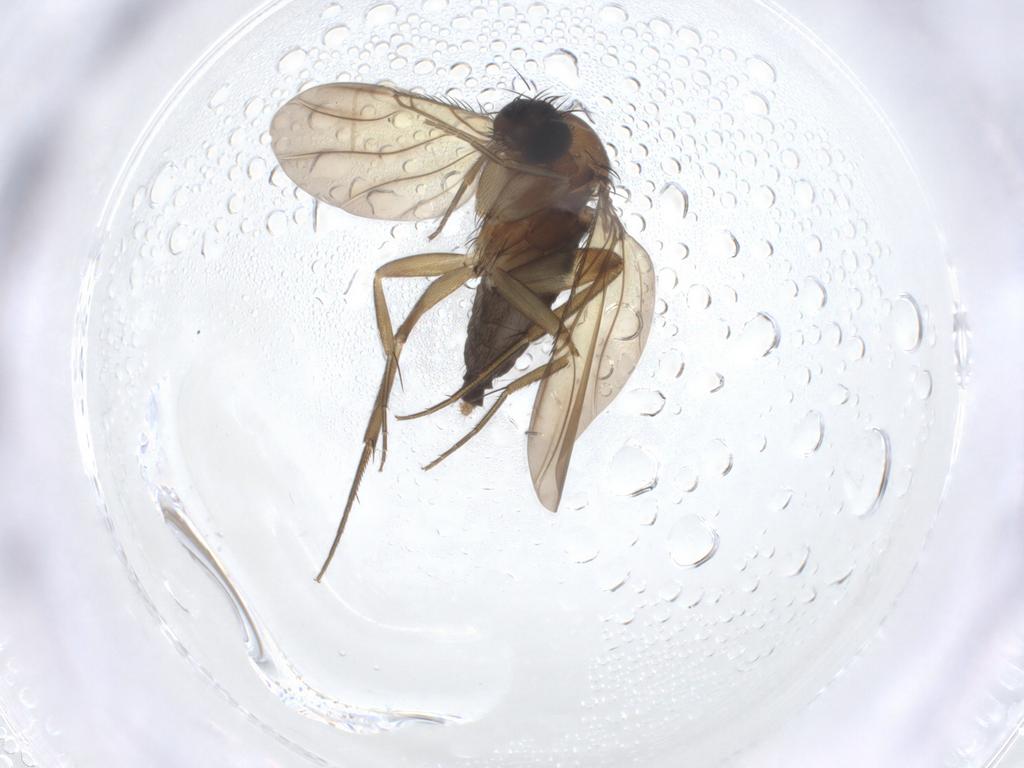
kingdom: Animalia
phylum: Arthropoda
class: Insecta
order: Diptera
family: Phoridae
